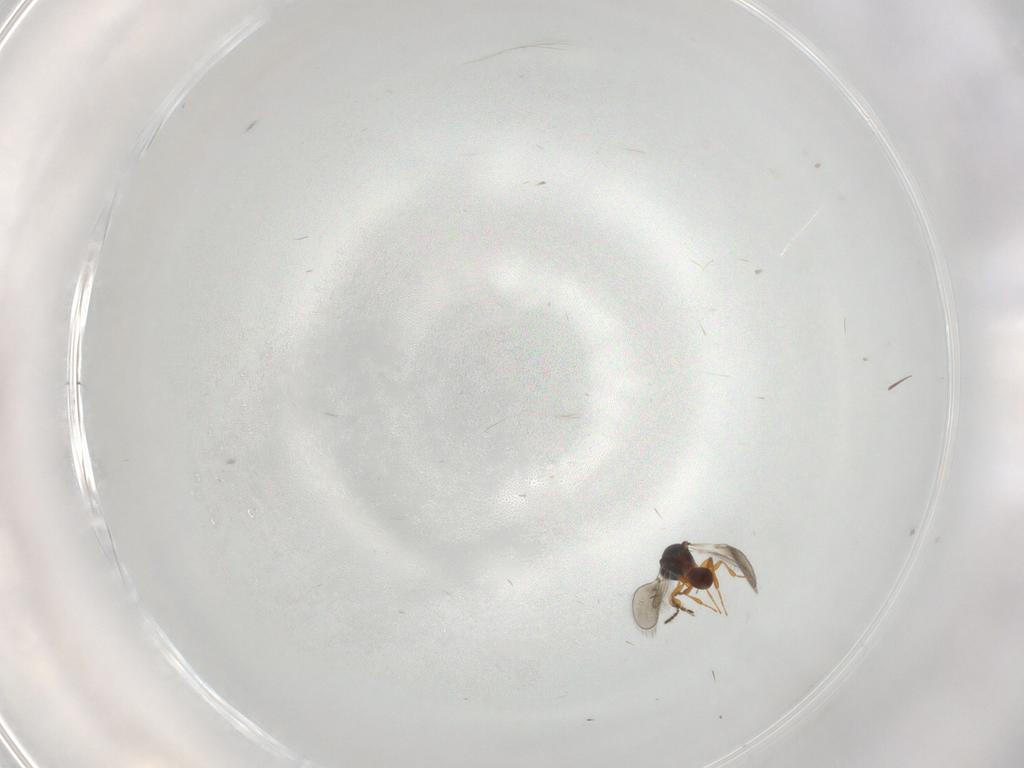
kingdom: Animalia
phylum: Arthropoda
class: Insecta
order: Hymenoptera
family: Platygastridae
